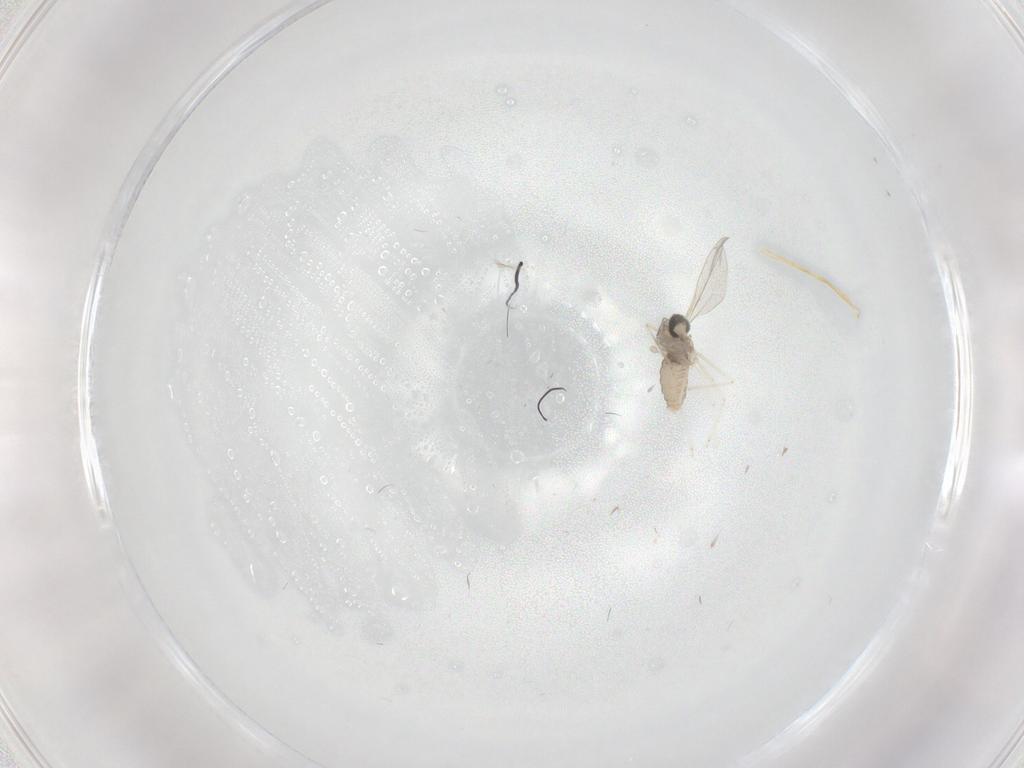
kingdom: Animalia
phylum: Arthropoda
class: Insecta
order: Diptera
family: Cecidomyiidae
